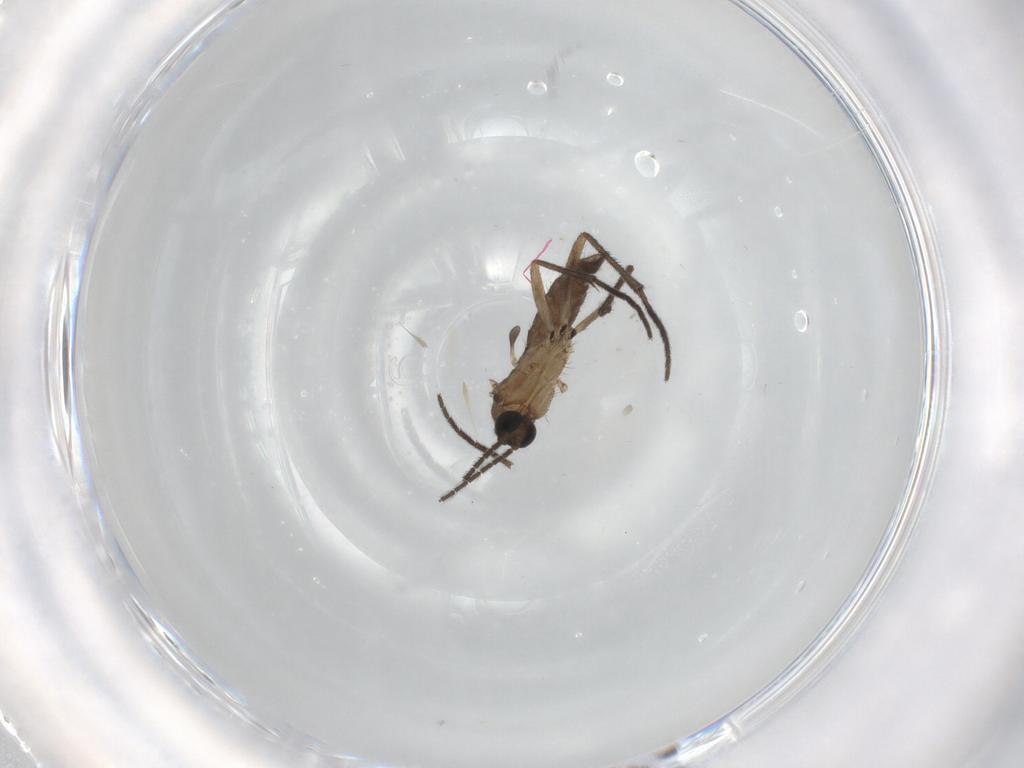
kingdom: Animalia
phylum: Arthropoda
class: Insecta
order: Diptera
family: Sciaridae
